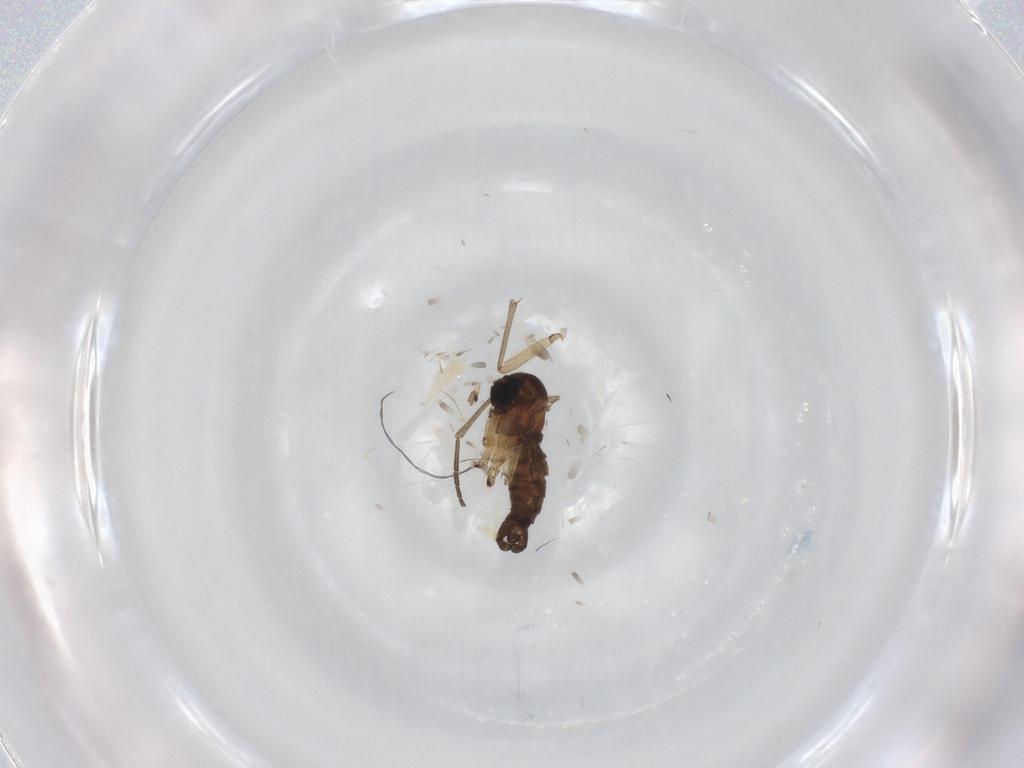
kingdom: Animalia
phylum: Arthropoda
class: Insecta
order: Diptera
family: Sciaridae
